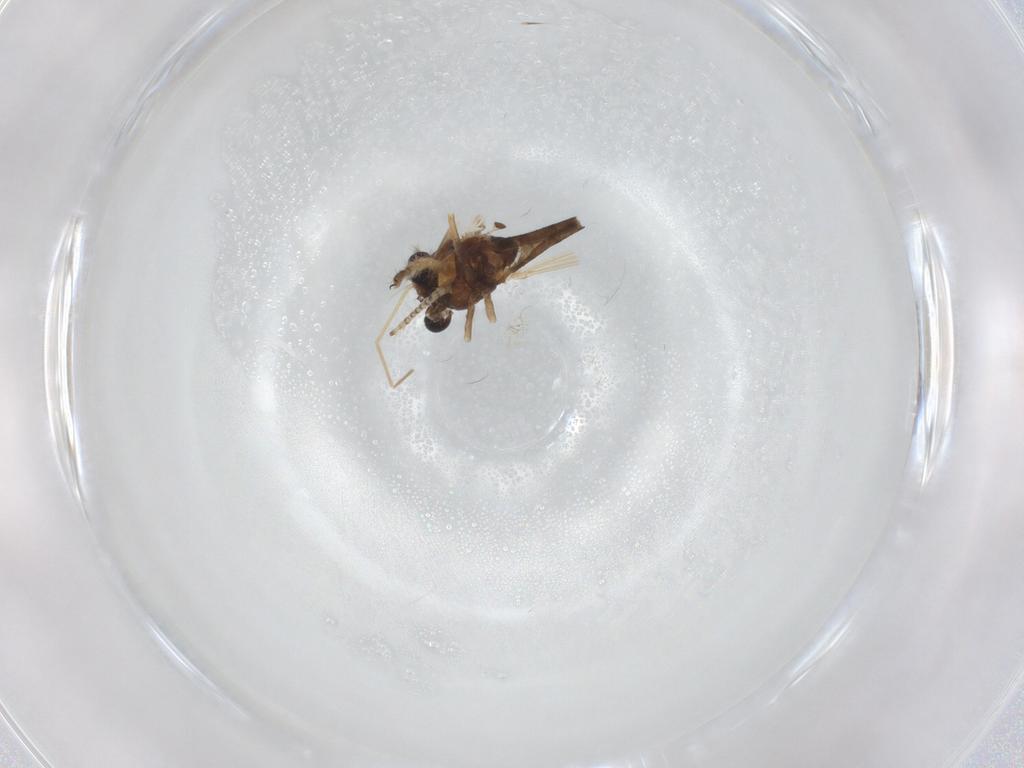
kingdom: Animalia
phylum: Arthropoda
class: Insecta
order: Diptera
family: Chaoboridae
